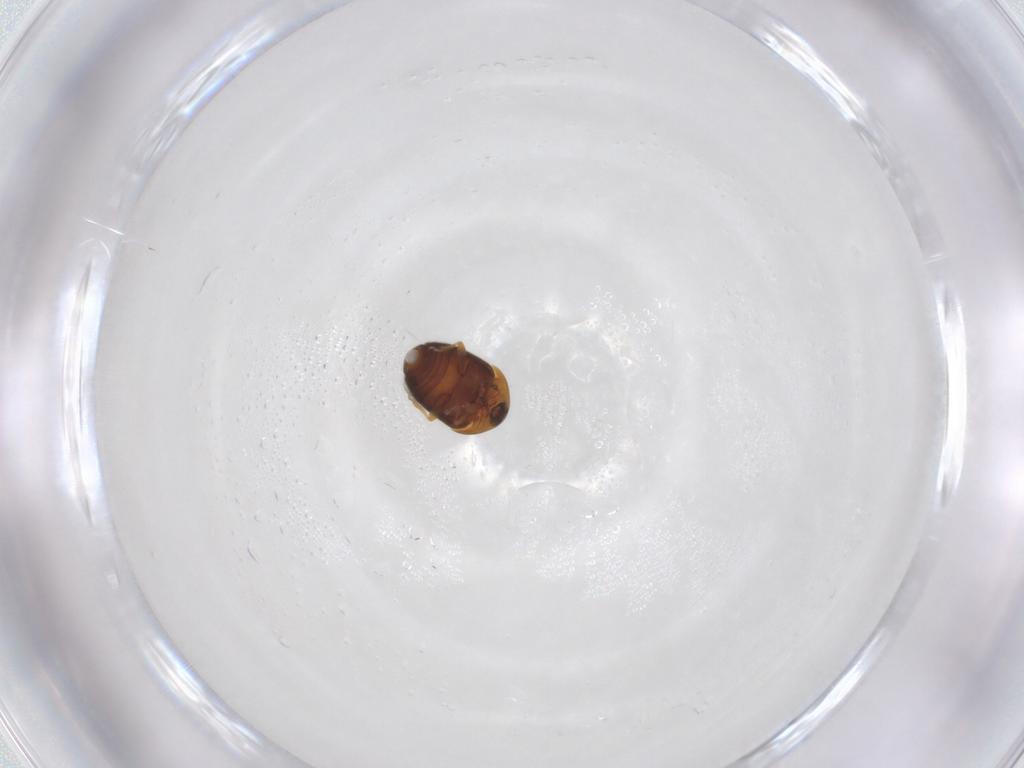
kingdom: Animalia
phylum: Arthropoda
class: Insecta
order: Coleoptera
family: Corylophidae
